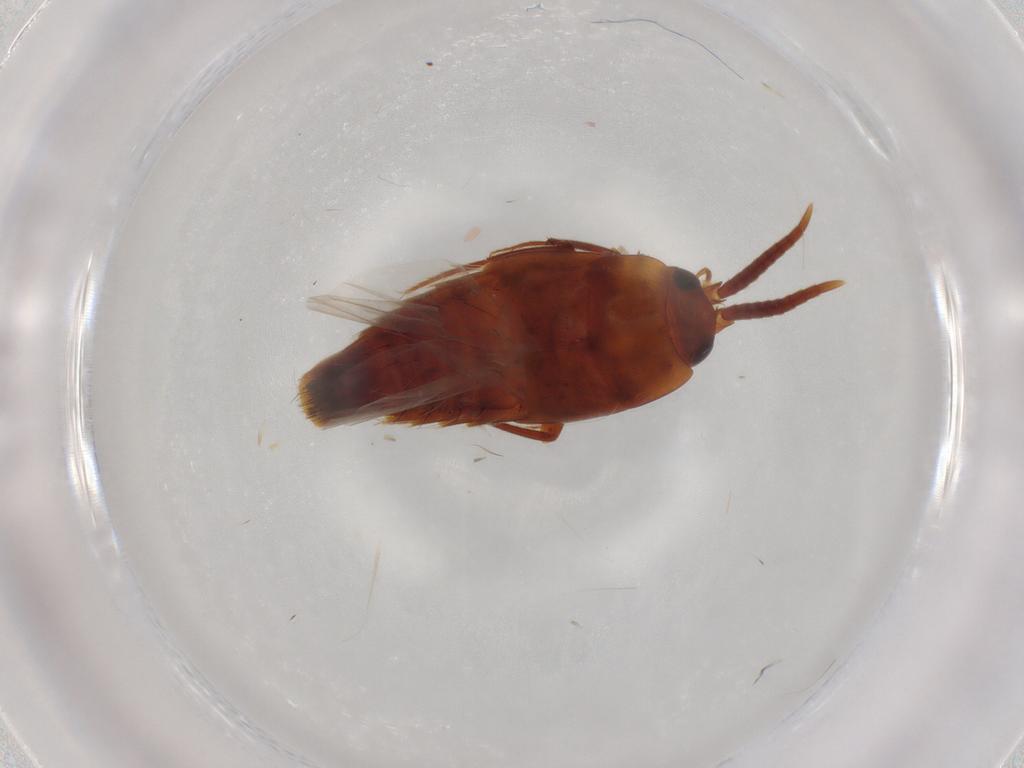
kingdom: Animalia
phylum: Arthropoda
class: Insecta
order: Coleoptera
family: Staphylinidae
